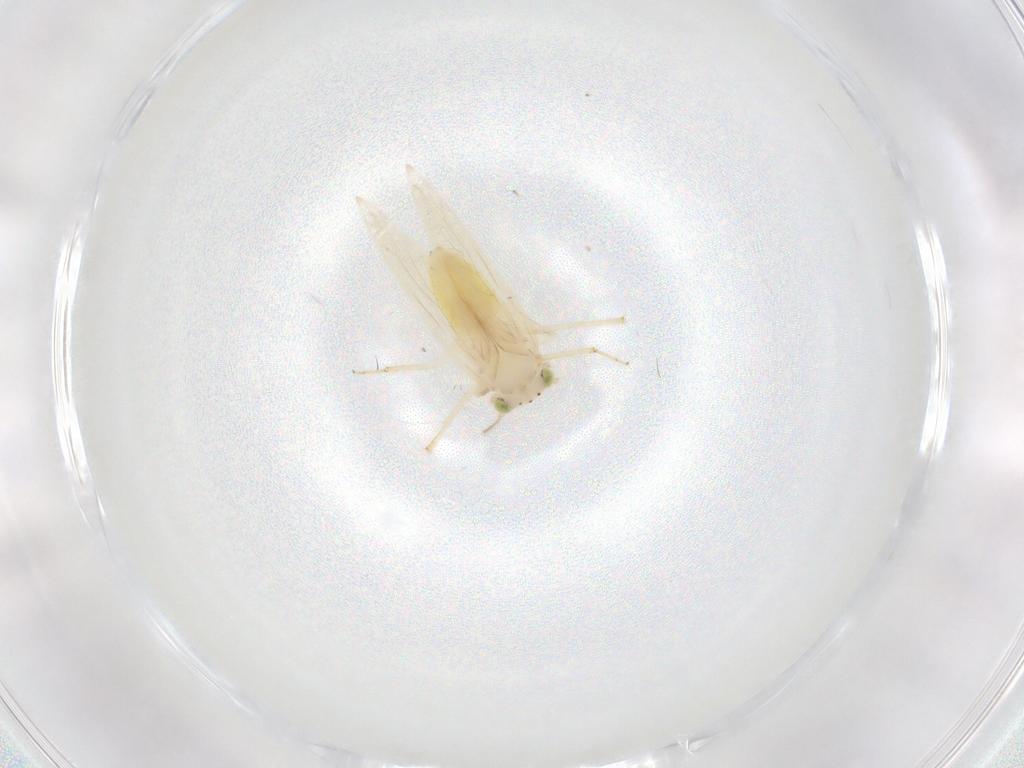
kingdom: Animalia
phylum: Arthropoda
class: Insecta
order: Psocodea
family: Lepidopsocidae
